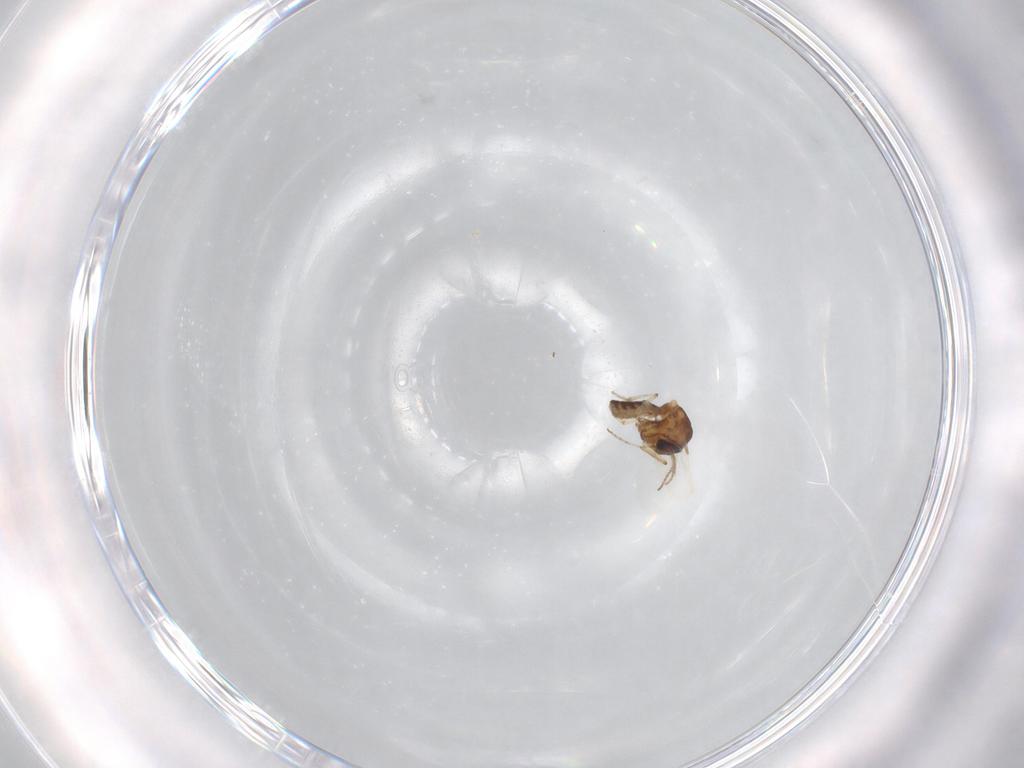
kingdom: Animalia
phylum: Arthropoda
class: Insecta
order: Diptera
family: Ceratopogonidae
